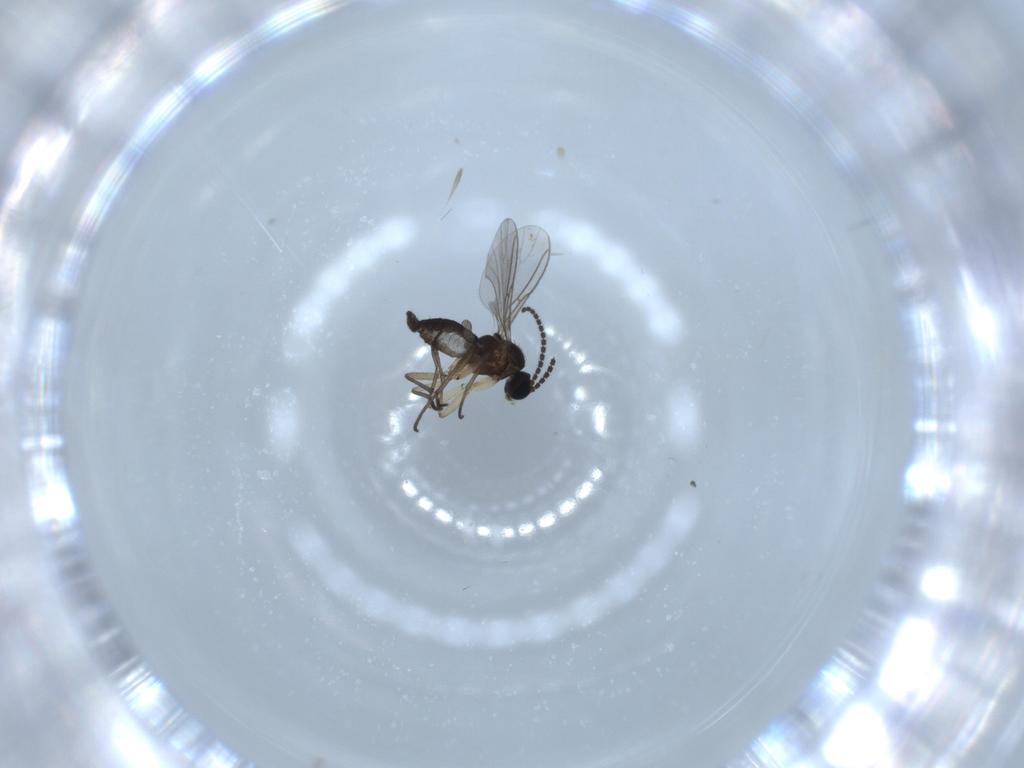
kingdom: Animalia
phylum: Arthropoda
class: Insecta
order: Diptera
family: Sciaridae
